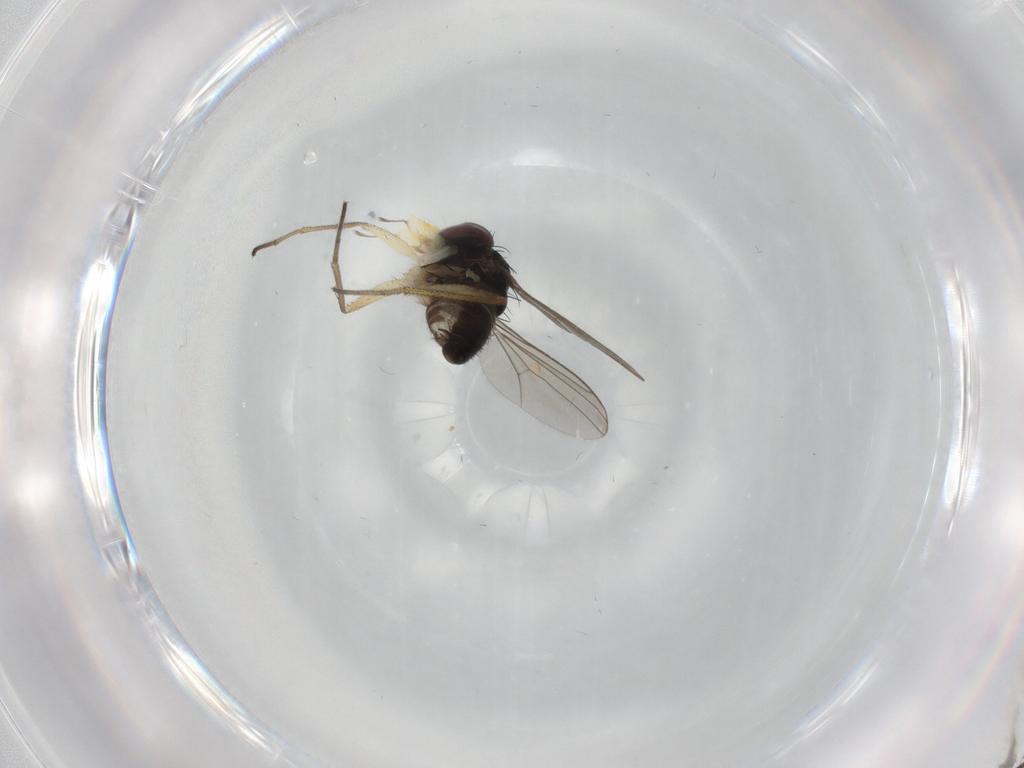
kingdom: Animalia
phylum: Arthropoda
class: Insecta
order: Diptera
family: Dolichopodidae
